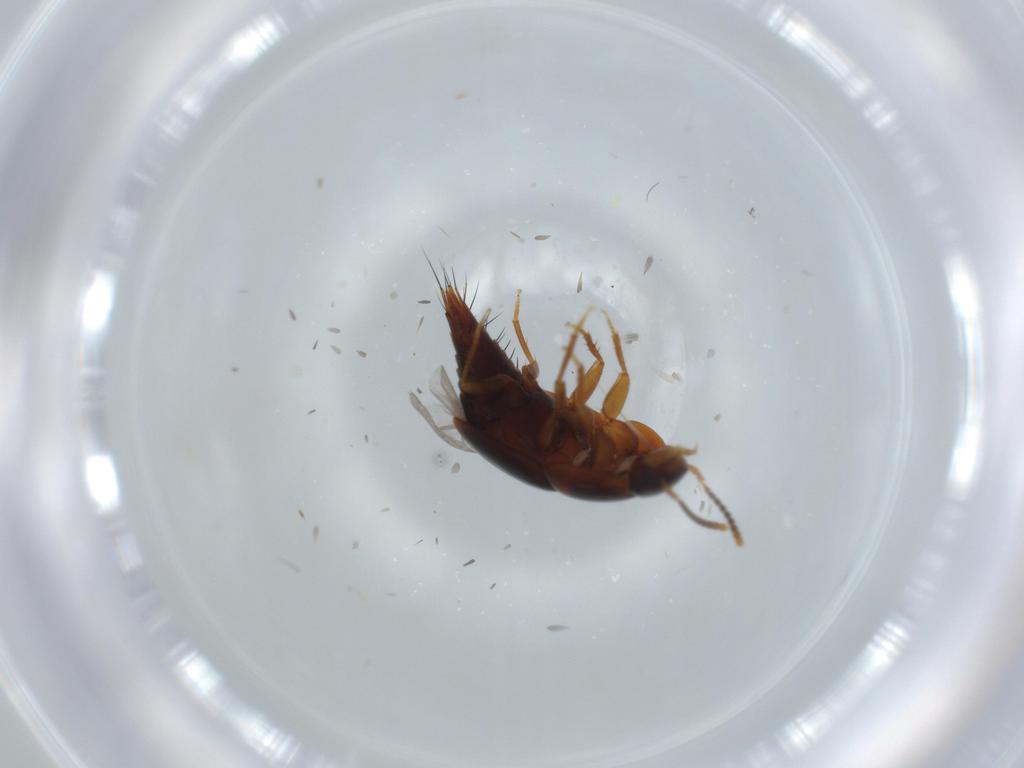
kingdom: Animalia
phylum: Arthropoda
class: Insecta
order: Coleoptera
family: Staphylinidae
